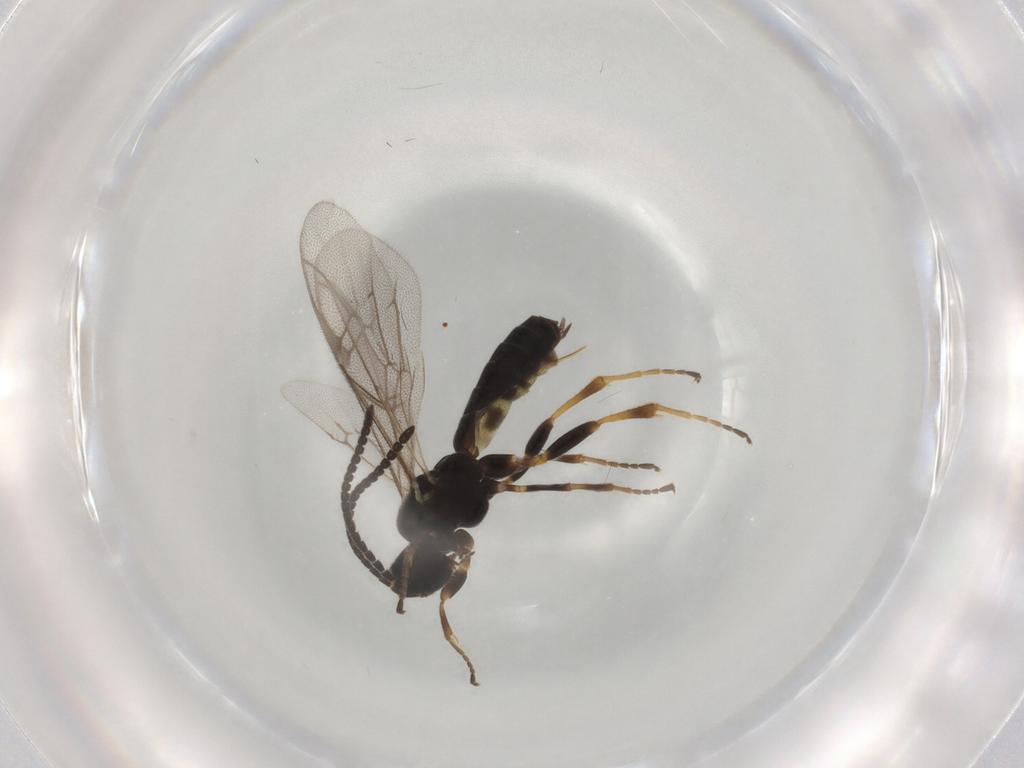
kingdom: Animalia
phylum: Arthropoda
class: Insecta
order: Hymenoptera
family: Ichneumonidae
